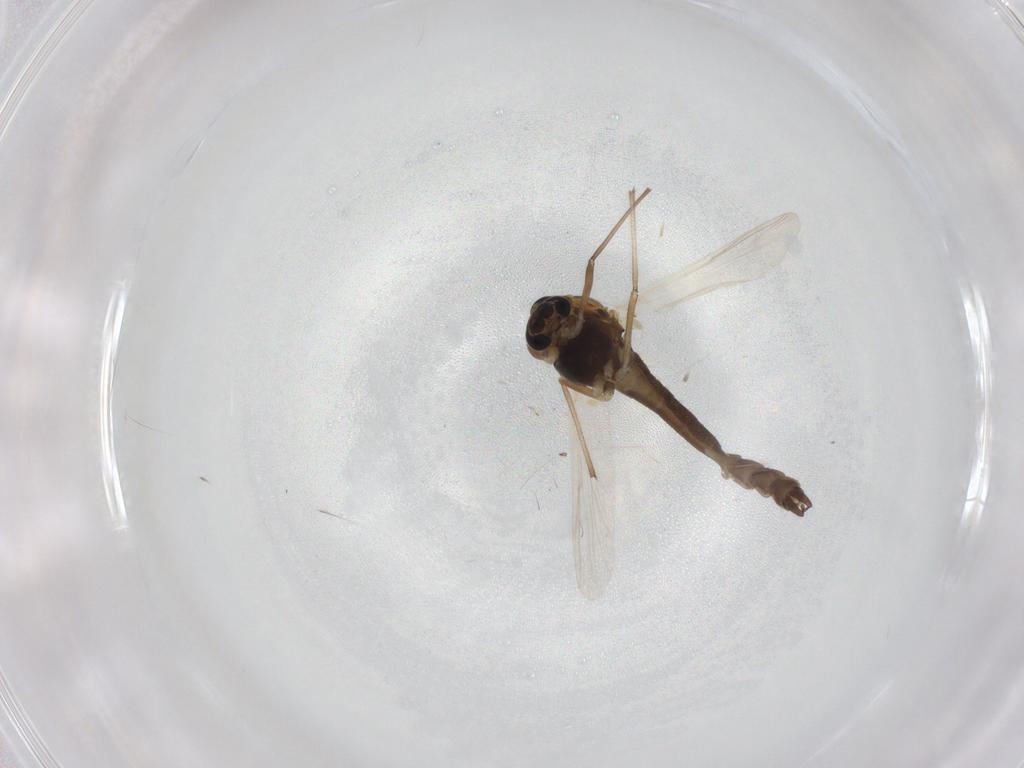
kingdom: Animalia
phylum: Arthropoda
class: Insecta
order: Diptera
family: Chironomidae
